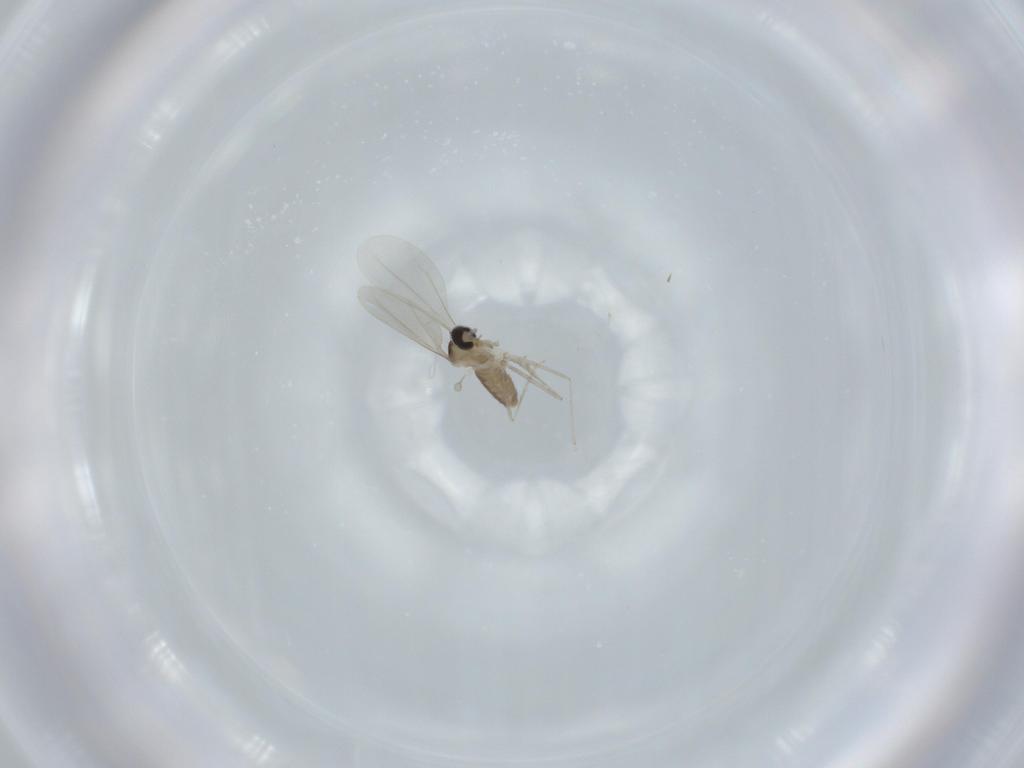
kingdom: Animalia
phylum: Arthropoda
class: Insecta
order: Diptera
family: Cecidomyiidae
